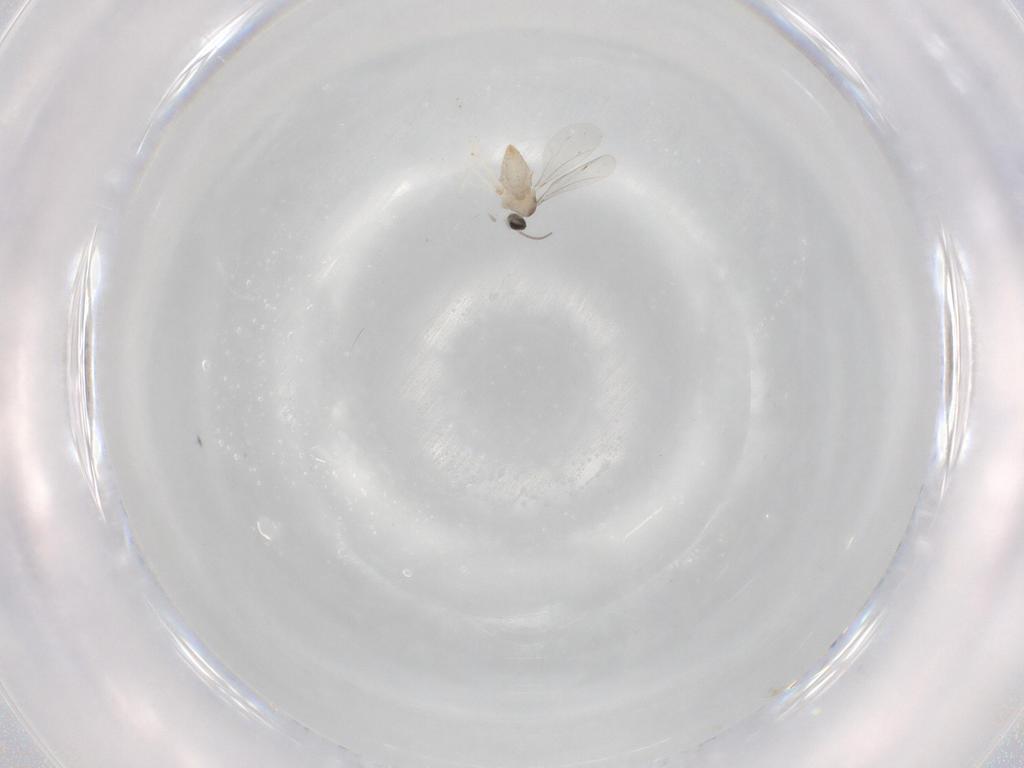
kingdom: Animalia
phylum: Arthropoda
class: Insecta
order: Diptera
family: Cecidomyiidae
